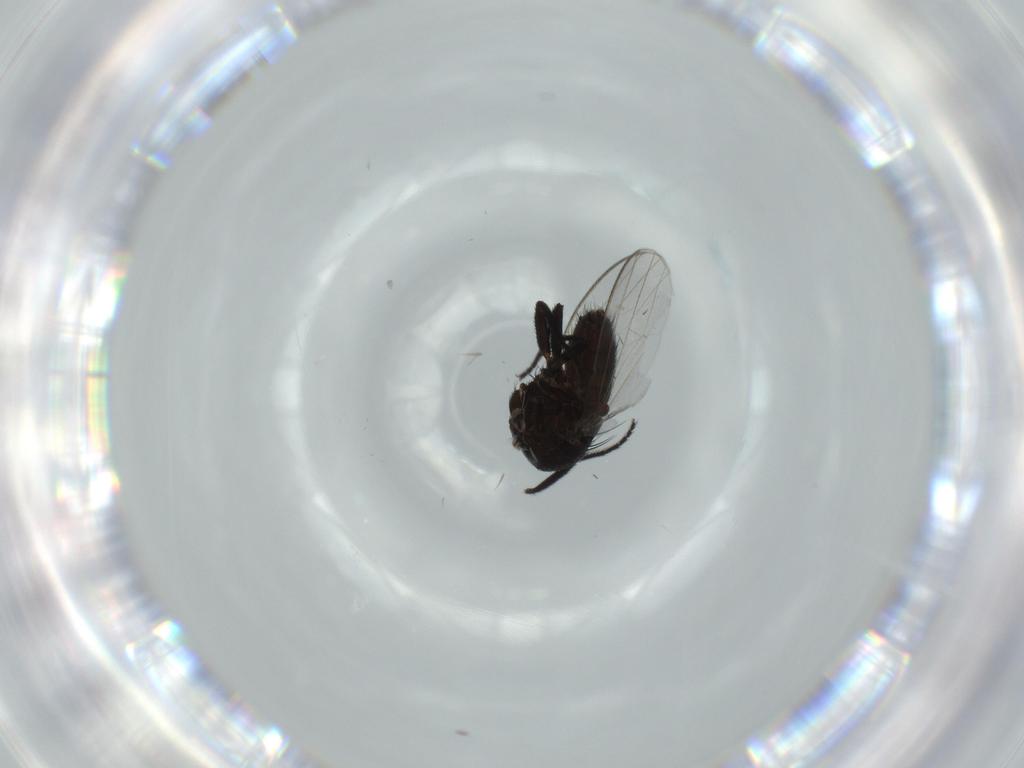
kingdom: Animalia
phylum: Arthropoda
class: Insecta
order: Diptera
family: Milichiidae
